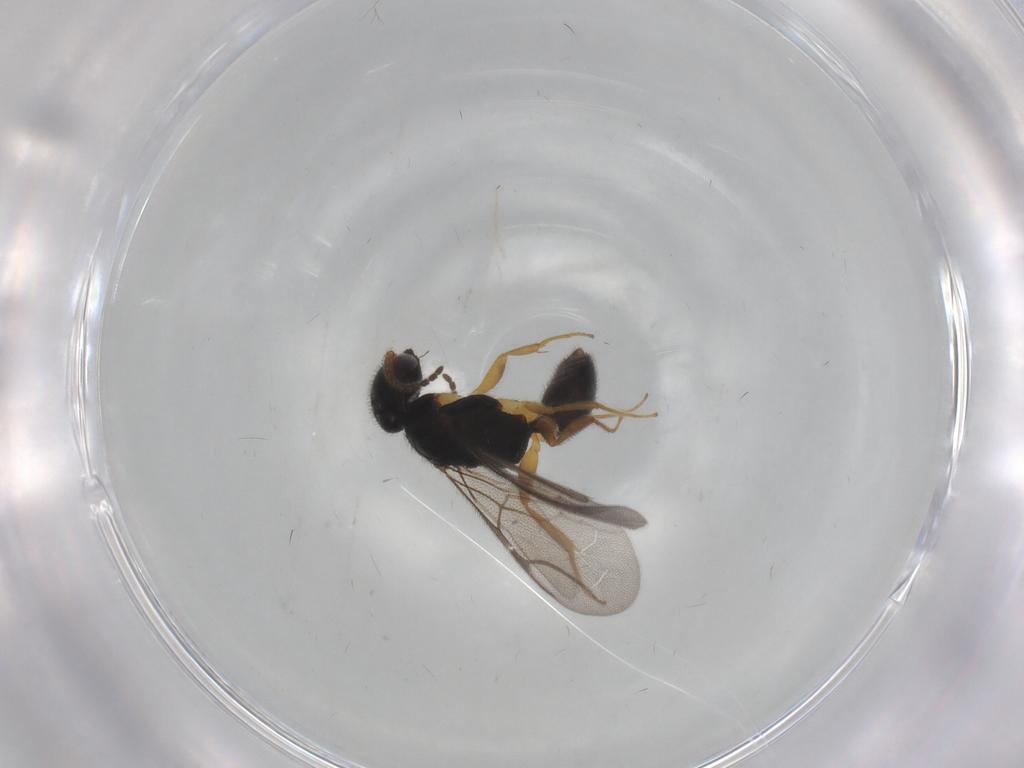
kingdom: Animalia
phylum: Arthropoda
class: Insecta
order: Hymenoptera
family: Bethylidae
